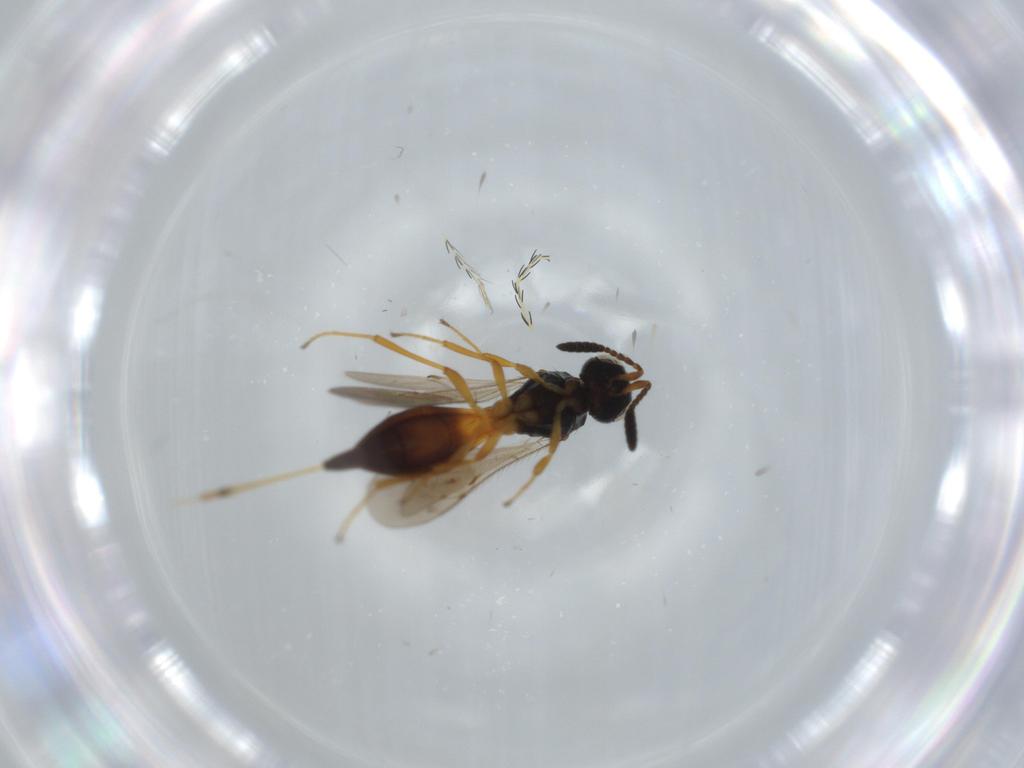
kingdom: Animalia
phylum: Arthropoda
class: Insecta
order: Hymenoptera
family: Scelionidae
